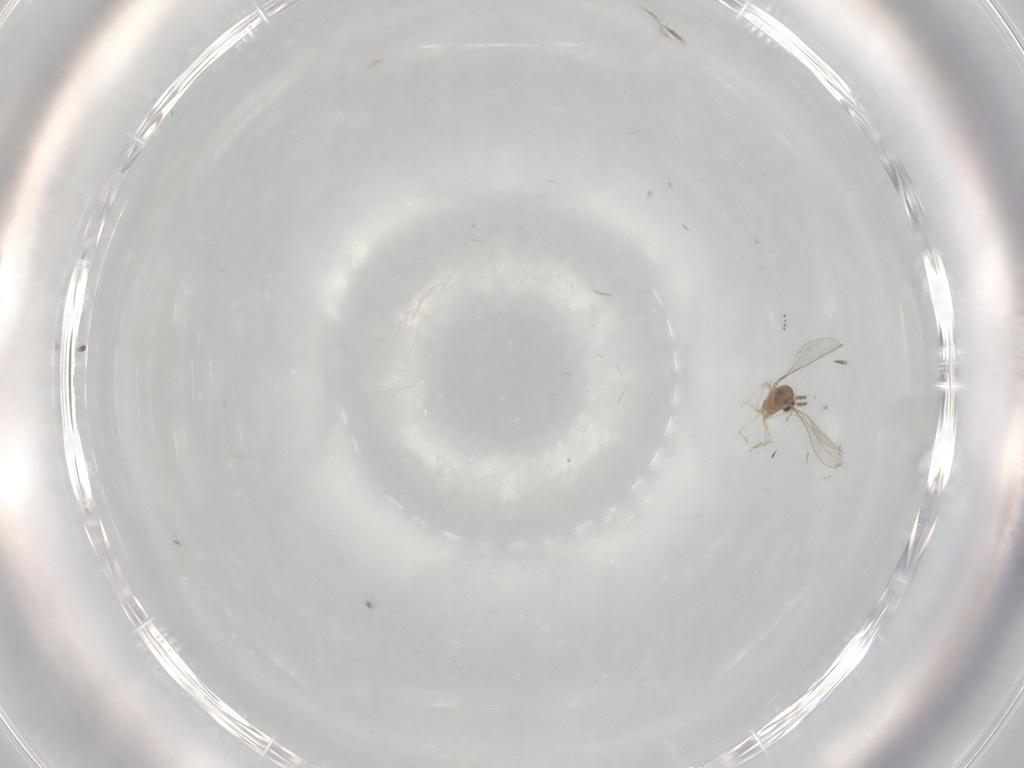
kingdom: Animalia
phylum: Arthropoda
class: Insecta
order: Diptera
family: Cecidomyiidae
